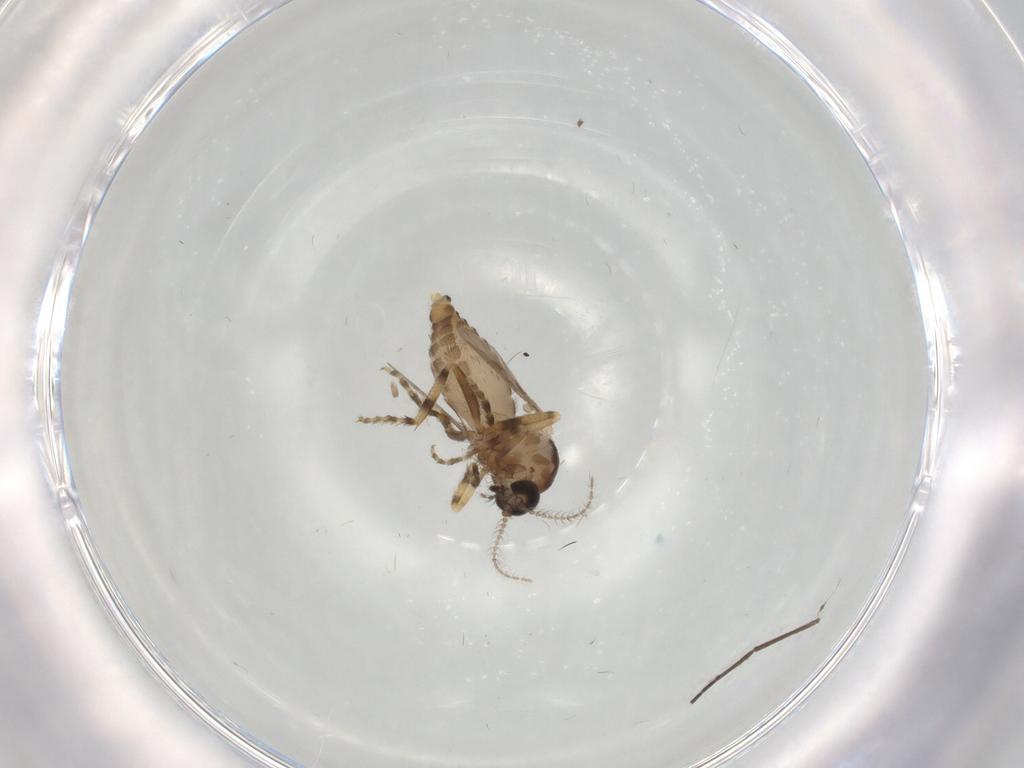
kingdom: Animalia
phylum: Arthropoda
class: Insecta
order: Diptera
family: Ceratopogonidae
